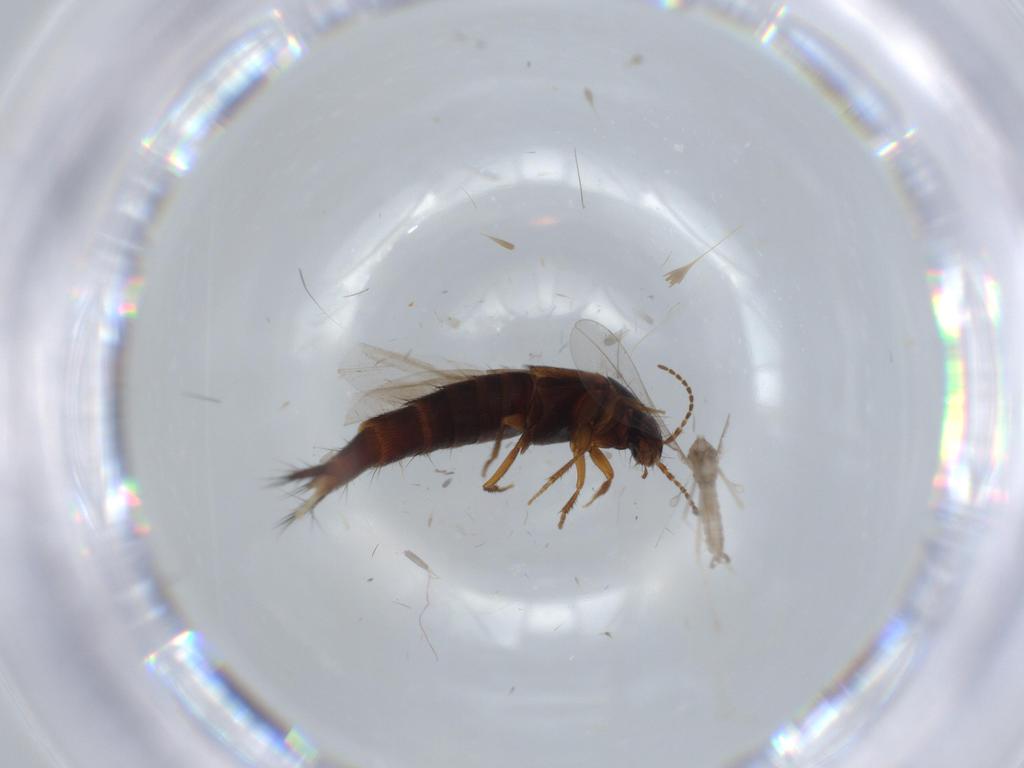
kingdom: Animalia
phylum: Arthropoda
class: Insecta
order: Diptera
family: Cecidomyiidae
